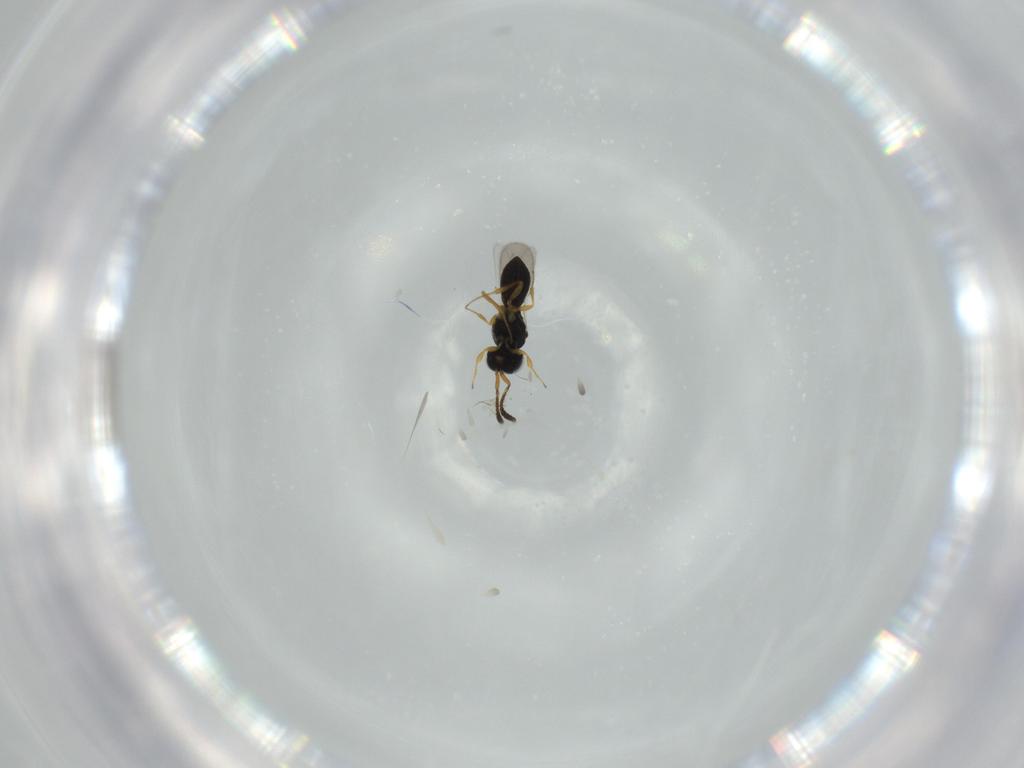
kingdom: Animalia
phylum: Arthropoda
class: Insecta
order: Hymenoptera
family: Scelionidae
